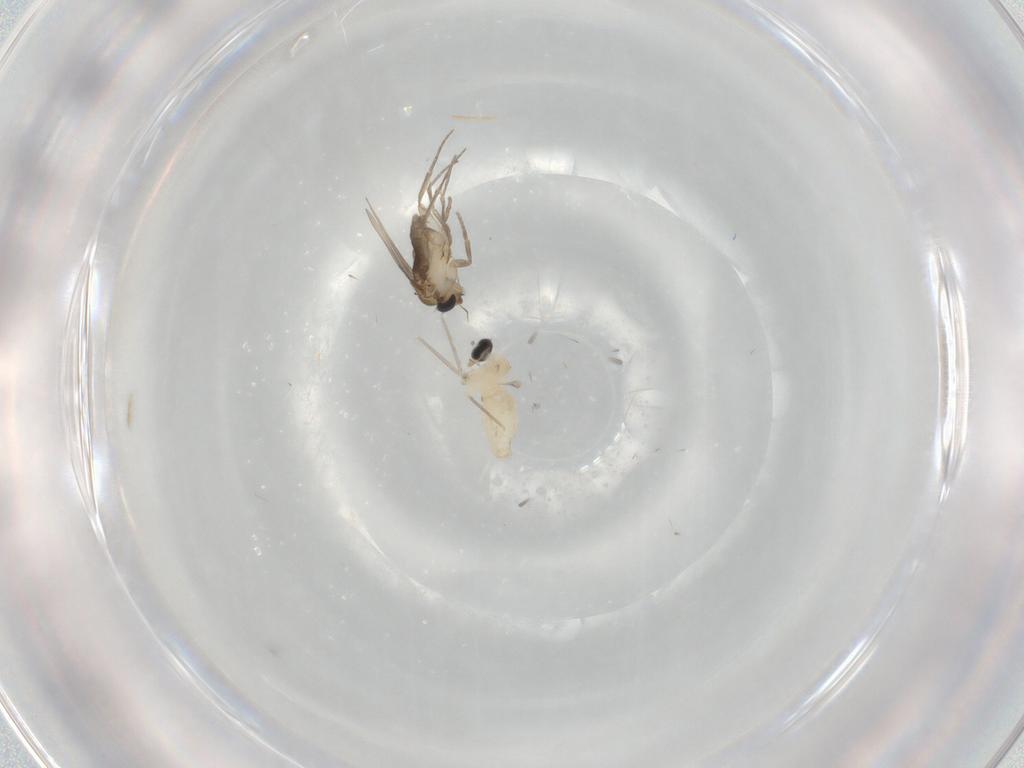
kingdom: Animalia
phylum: Arthropoda
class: Insecta
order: Diptera
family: Cecidomyiidae
